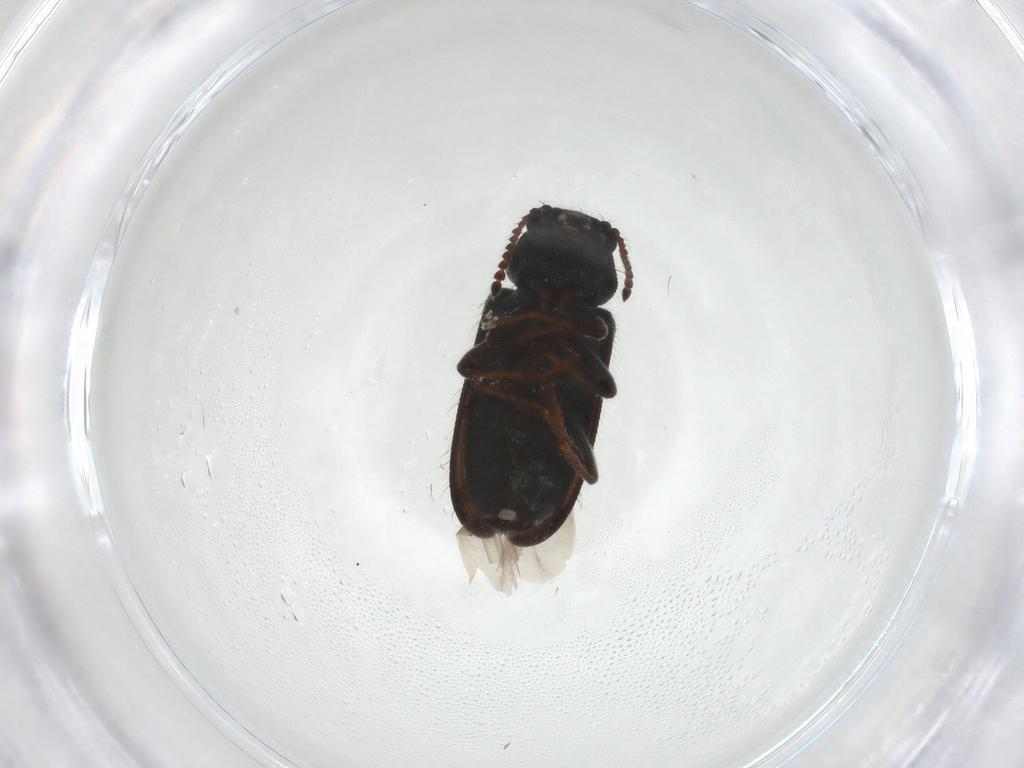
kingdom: Animalia
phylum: Arthropoda
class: Insecta
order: Coleoptera
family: Melyridae
